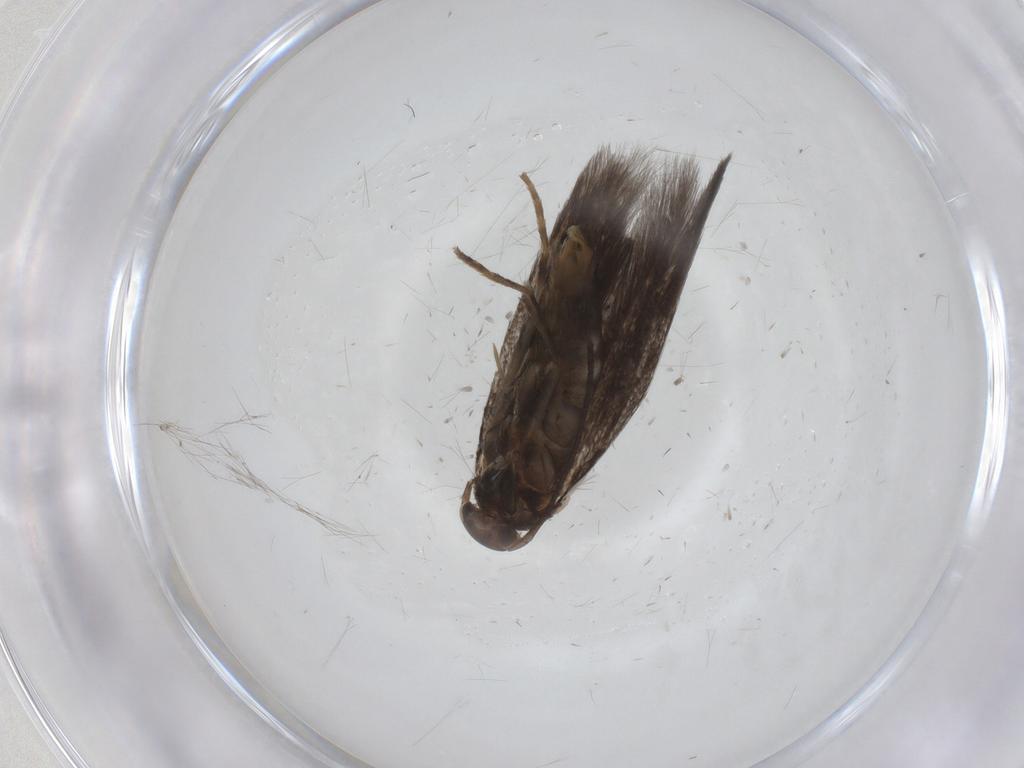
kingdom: Animalia
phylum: Arthropoda
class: Insecta
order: Lepidoptera
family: Elachistidae
